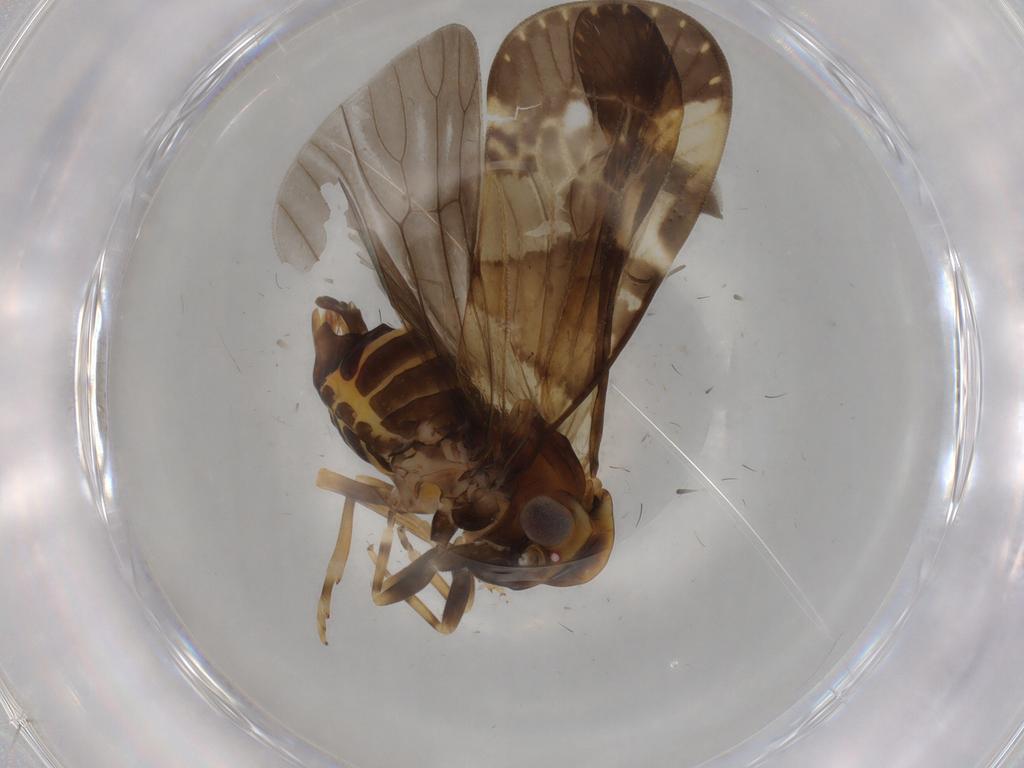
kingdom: Animalia
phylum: Arthropoda
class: Insecta
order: Hemiptera
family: Cixiidae
